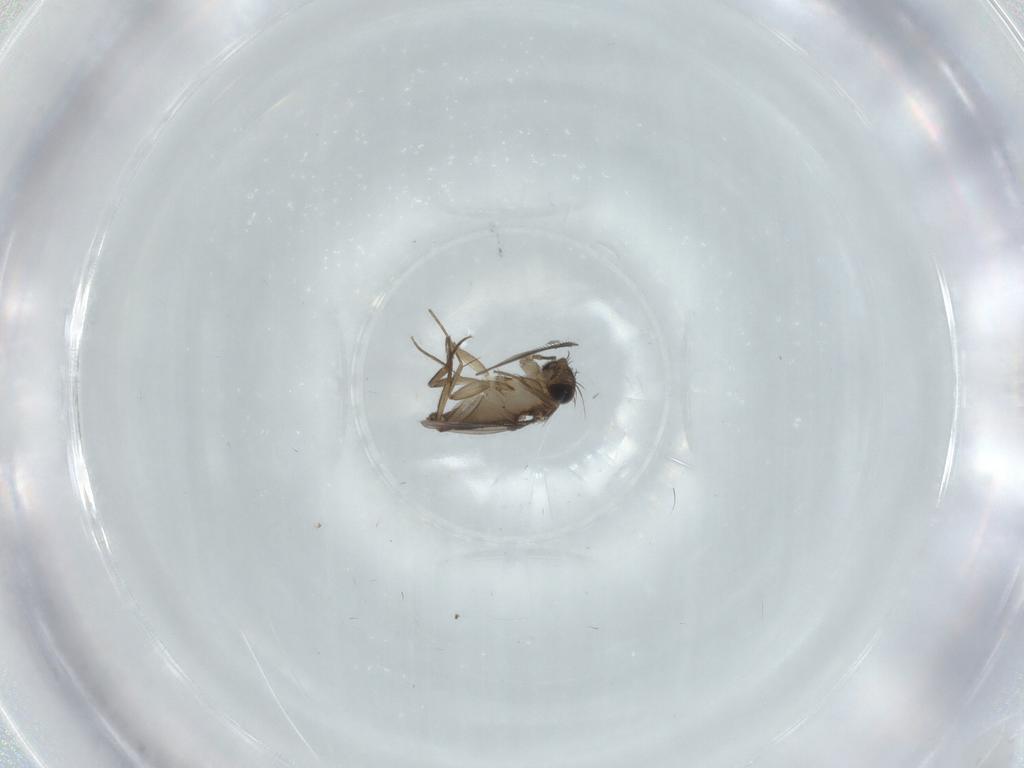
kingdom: Animalia
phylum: Arthropoda
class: Insecta
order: Diptera
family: Phoridae
